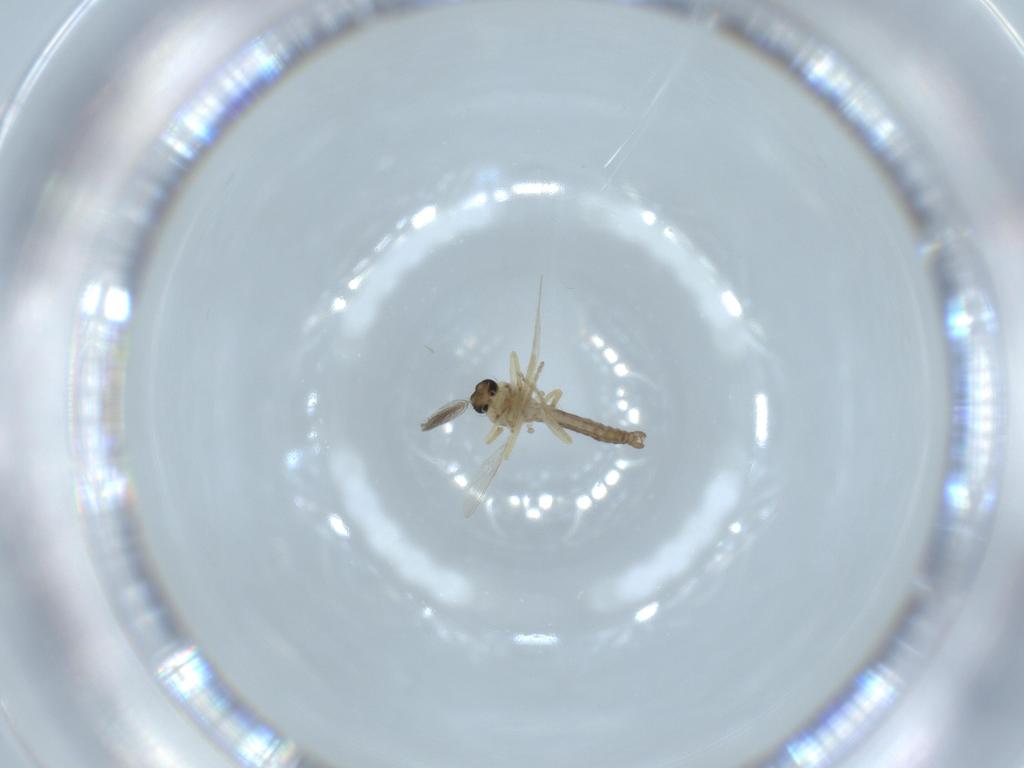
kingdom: Animalia
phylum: Arthropoda
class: Insecta
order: Diptera
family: Ceratopogonidae
